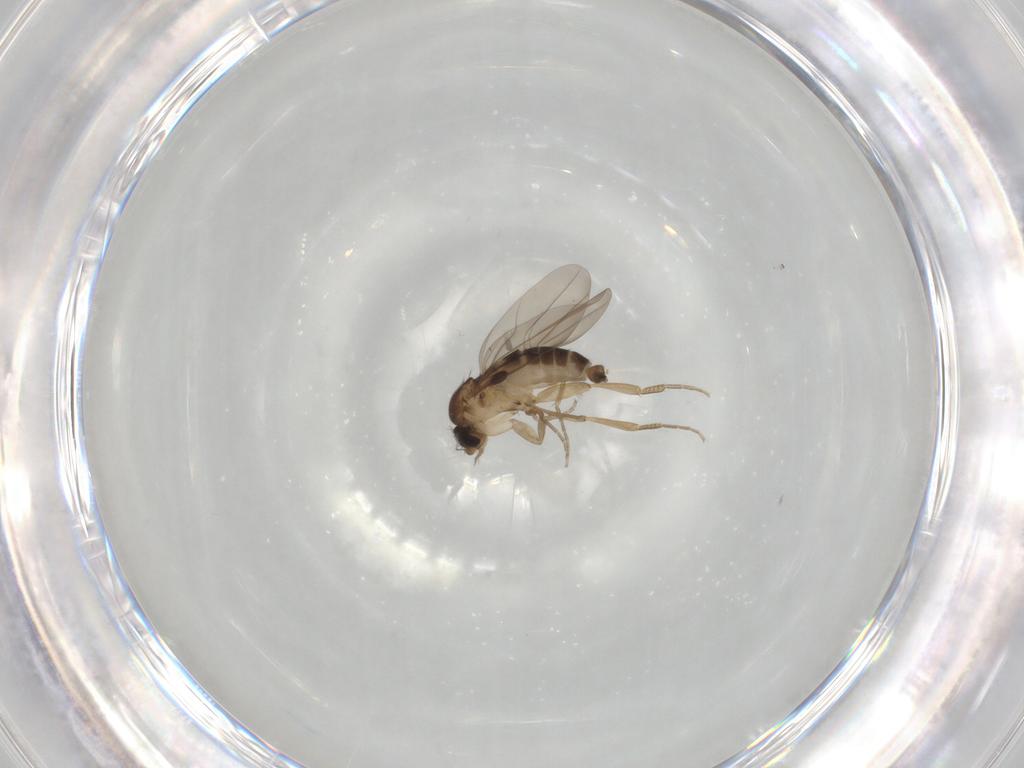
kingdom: Animalia
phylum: Arthropoda
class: Insecta
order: Diptera
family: Phoridae
